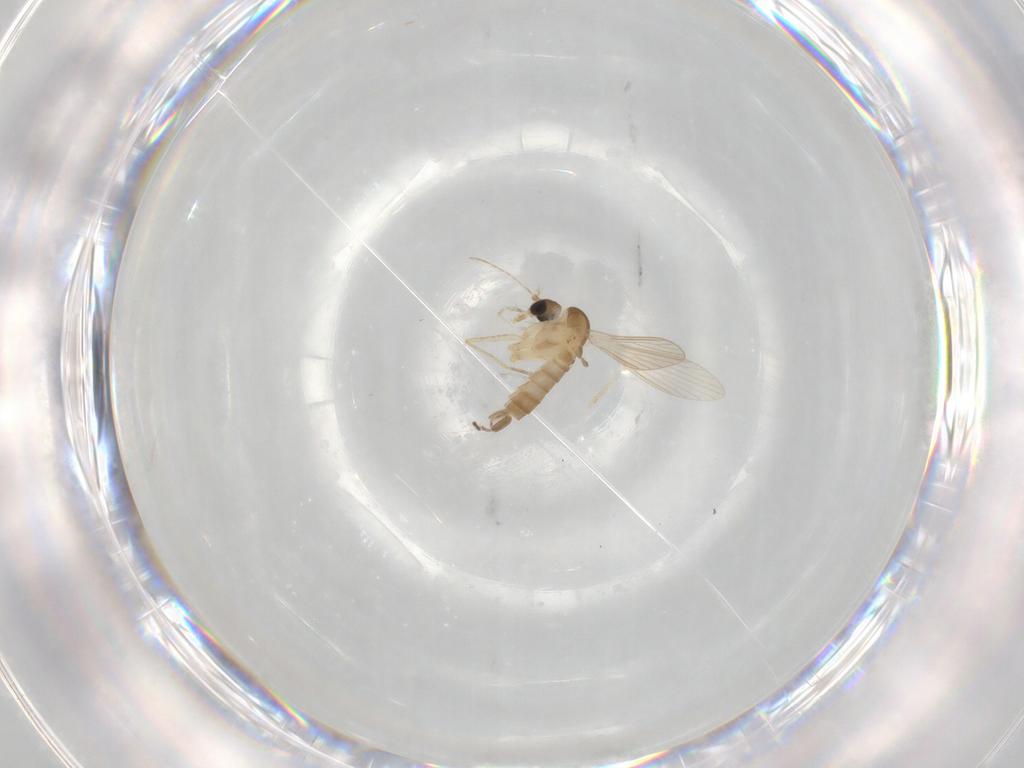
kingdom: Animalia
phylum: Arthropoda
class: Insecta
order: Diptera
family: Psychodidae
